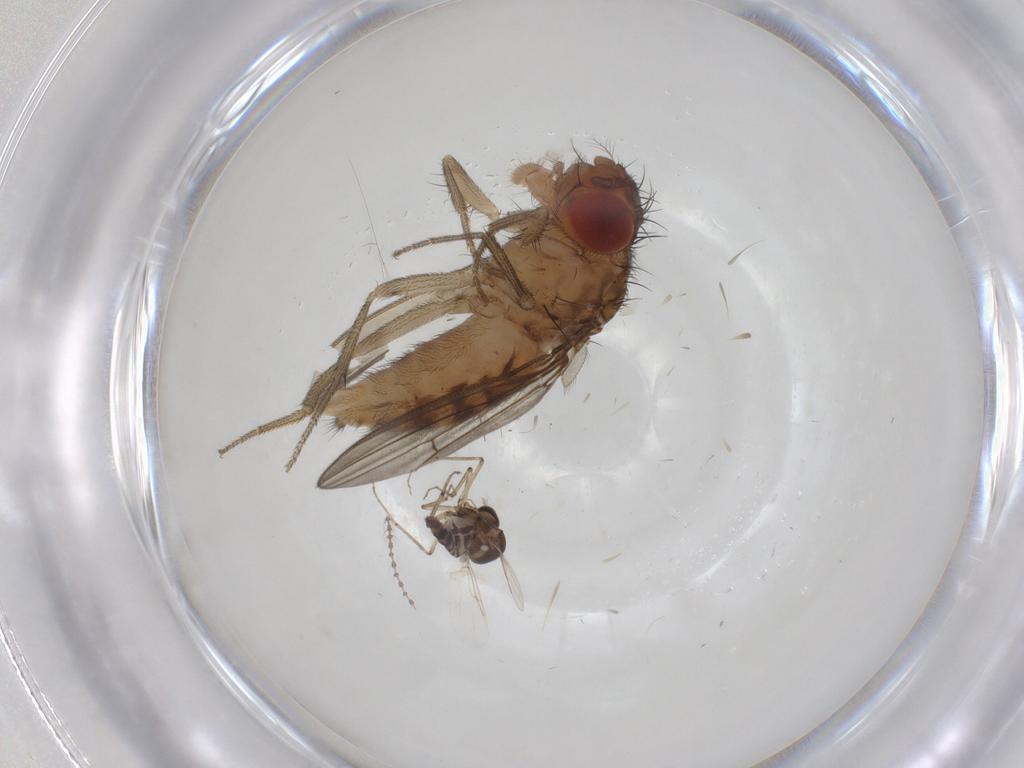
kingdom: Animalia
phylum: Arthropoda
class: Insecta
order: Diptera
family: Drosophilidae
